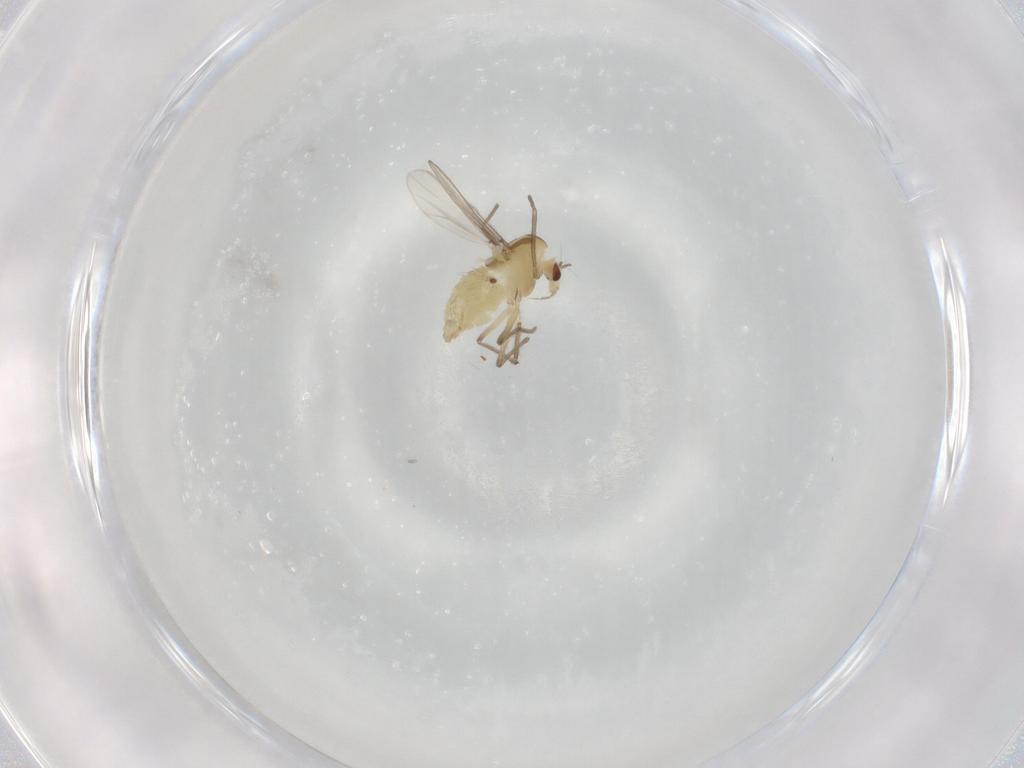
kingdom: Animalia
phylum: Arthropoda
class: Insecta
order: Diptera
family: Chironomidae
